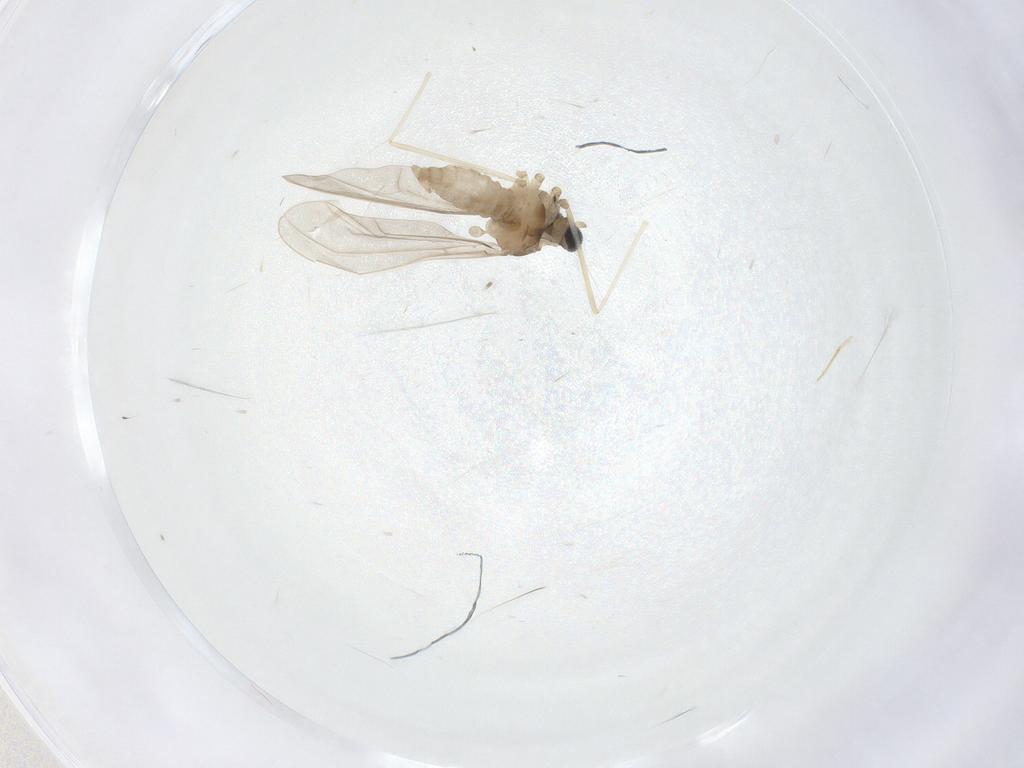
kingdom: Animalia
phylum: Arthropoda
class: Insecta
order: Diptera
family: Cecidomyiidae
